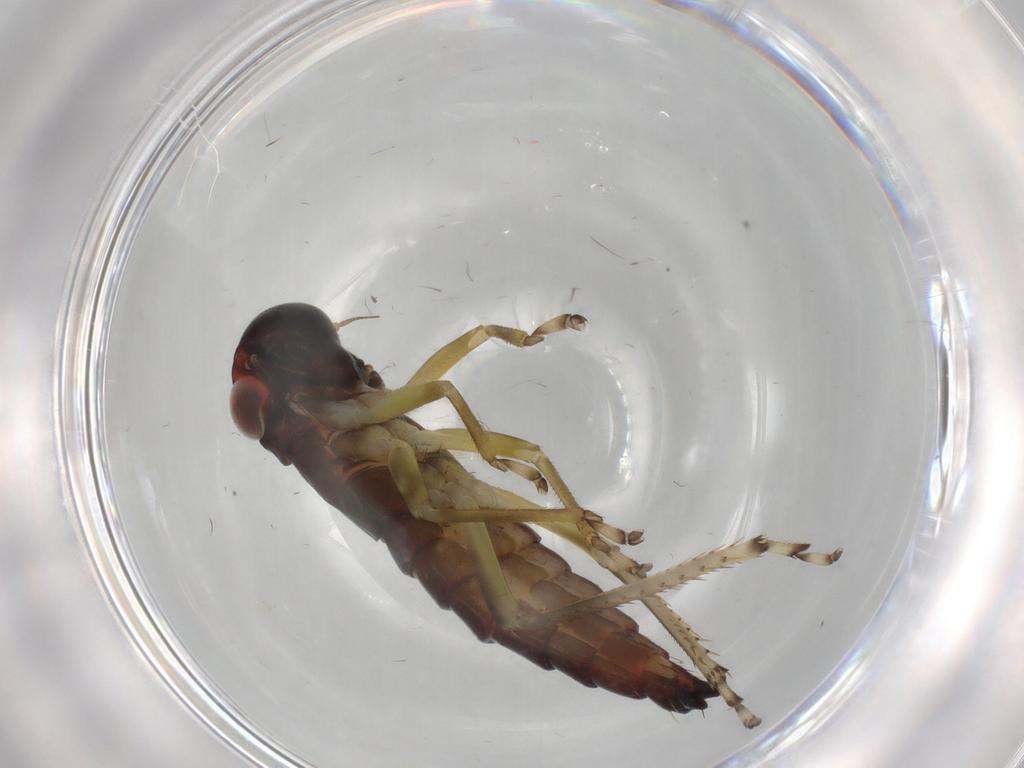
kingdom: Animalia
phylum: Arthropoda
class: Insecta
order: Hemiptera
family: Cicadellidae
